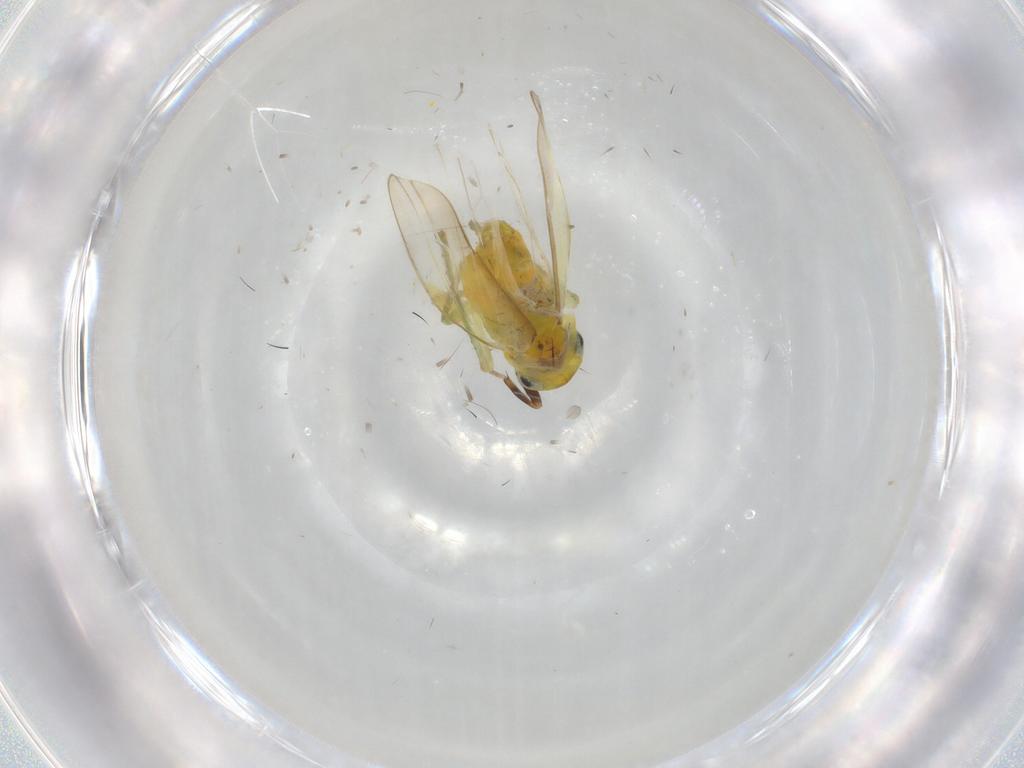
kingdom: Animalia
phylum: Arthropoda
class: Insecta
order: Hemiptera
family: Cicadellidae
